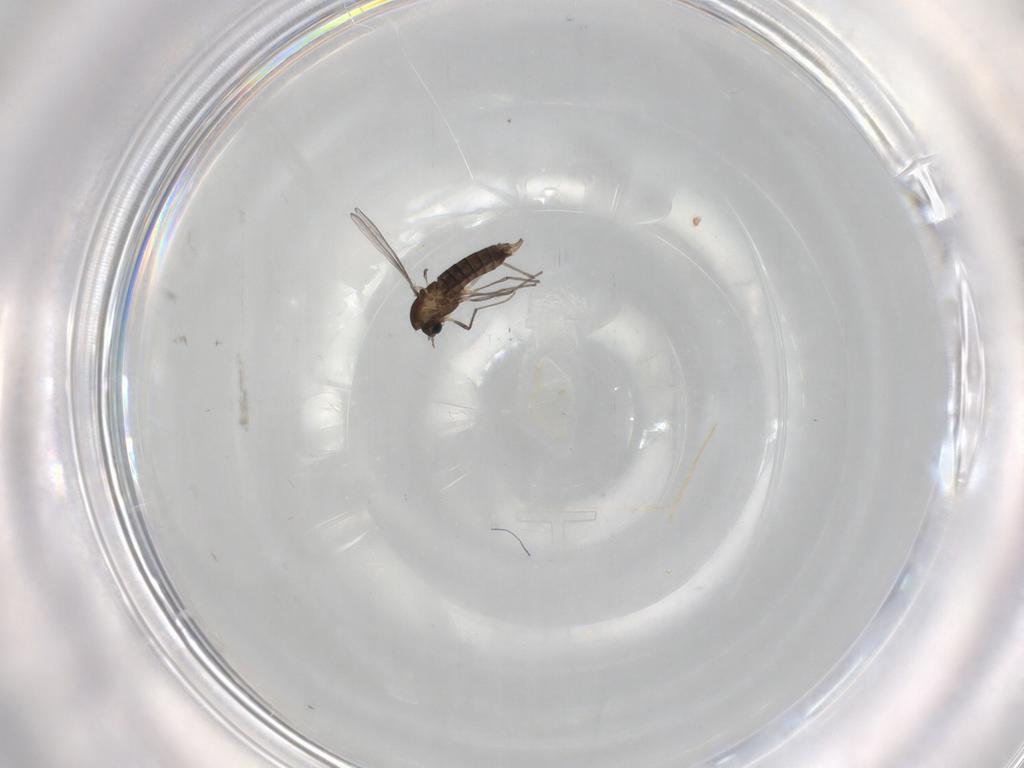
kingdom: Animalia
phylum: Arthropoda
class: Insecta
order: Diptera
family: Chironomidae
